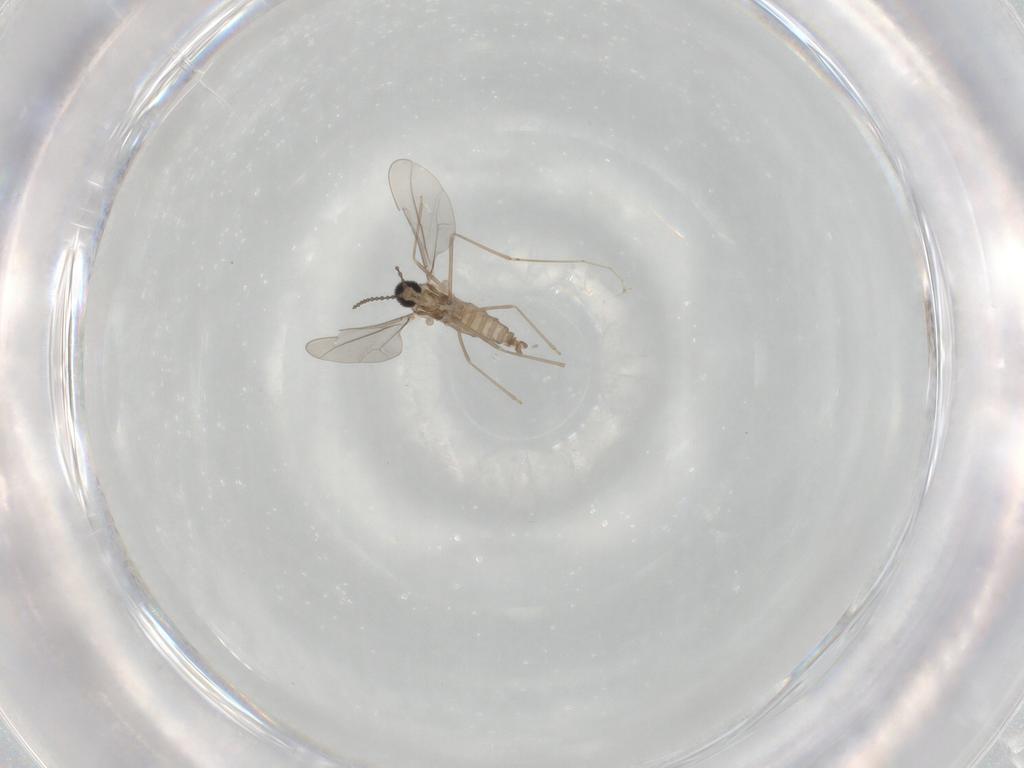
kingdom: Animalia
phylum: Arthropoda
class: Insecta
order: Diptera
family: Cecidomyiidae
